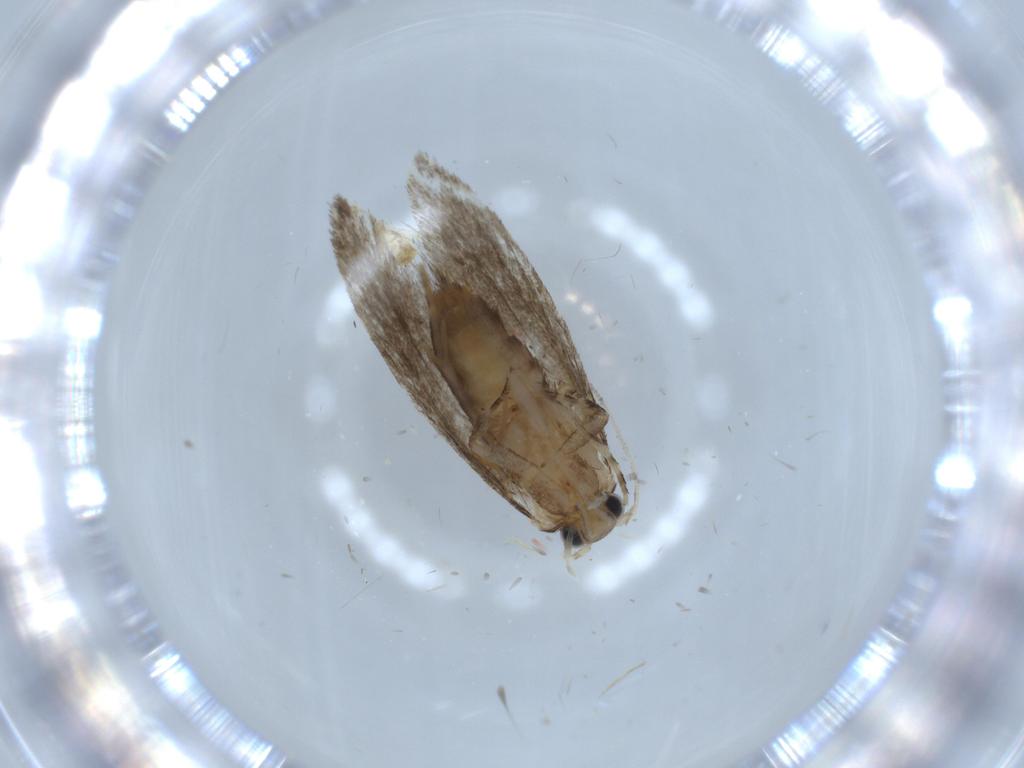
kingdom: Animalia
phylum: Arthropoda
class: Insecta
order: Lepidoptera
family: Tineidae
